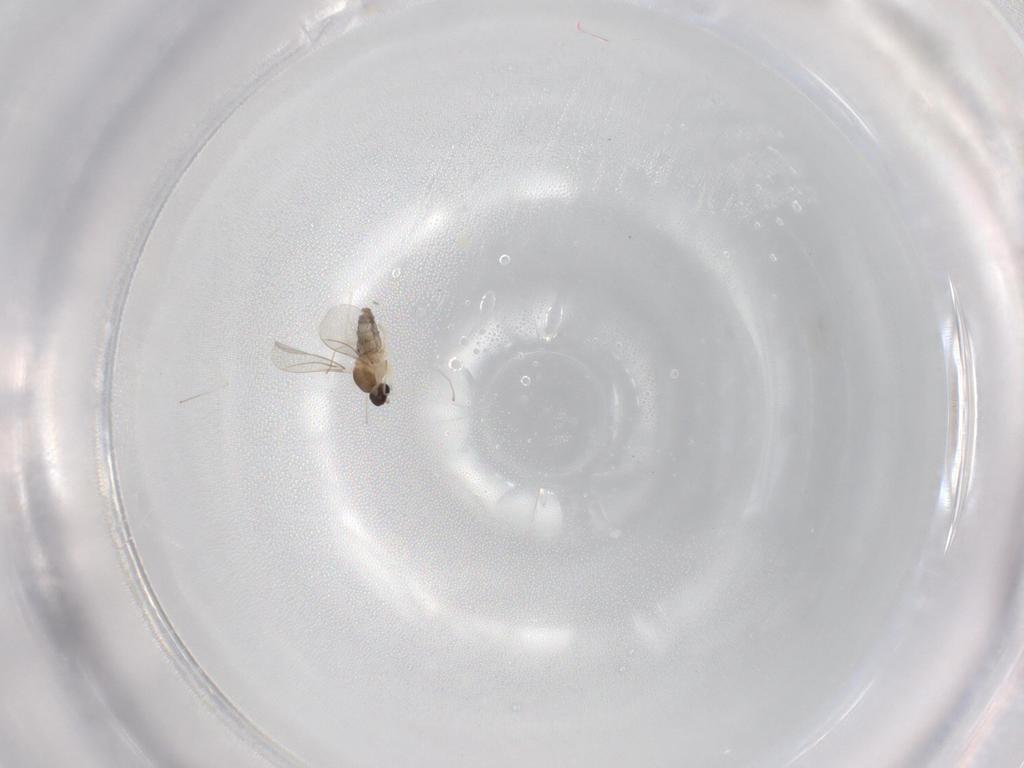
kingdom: Animalia
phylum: Arthropoda
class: Insecta
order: Diptera
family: Cecidomyiidae
